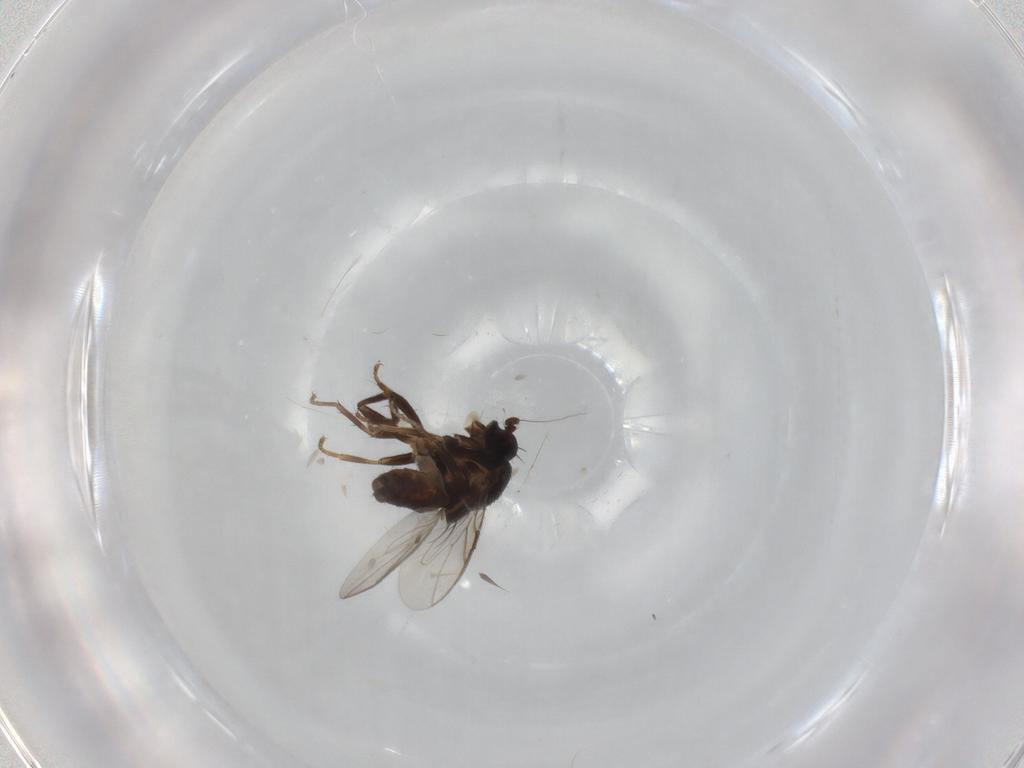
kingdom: Animalia
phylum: Arthropoda
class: Insecta
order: Diptera
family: Sphaeroceridae
